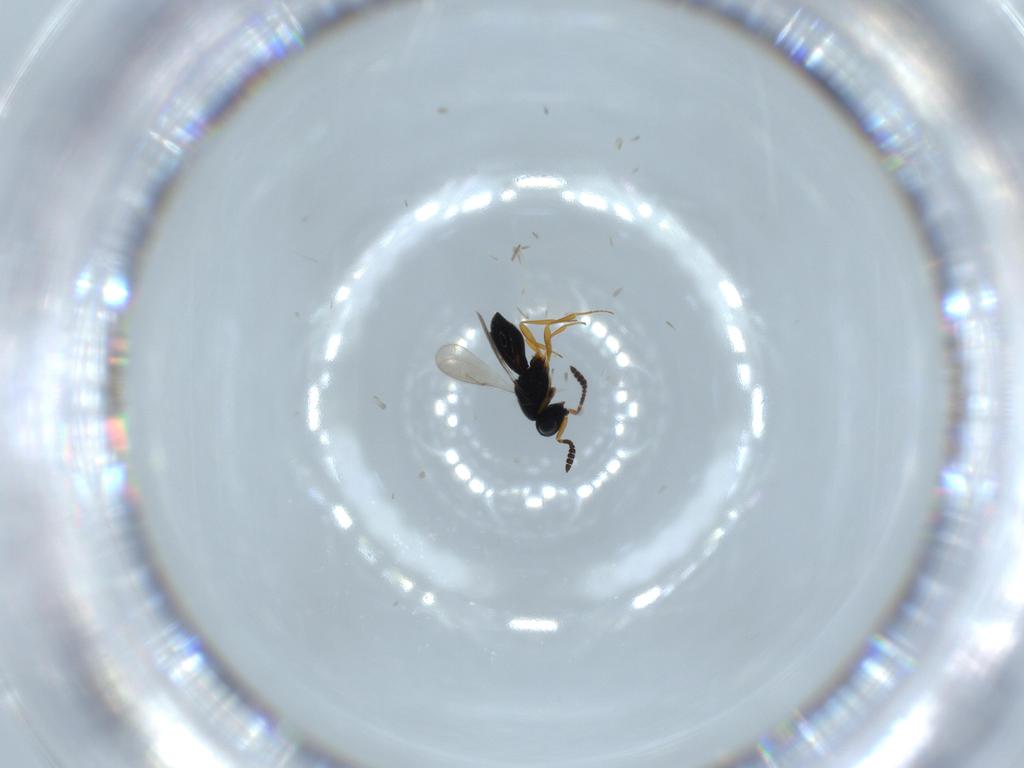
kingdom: Animalia
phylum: Arthropoda
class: Insecta
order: Hymenoptera
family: Scelionidae
